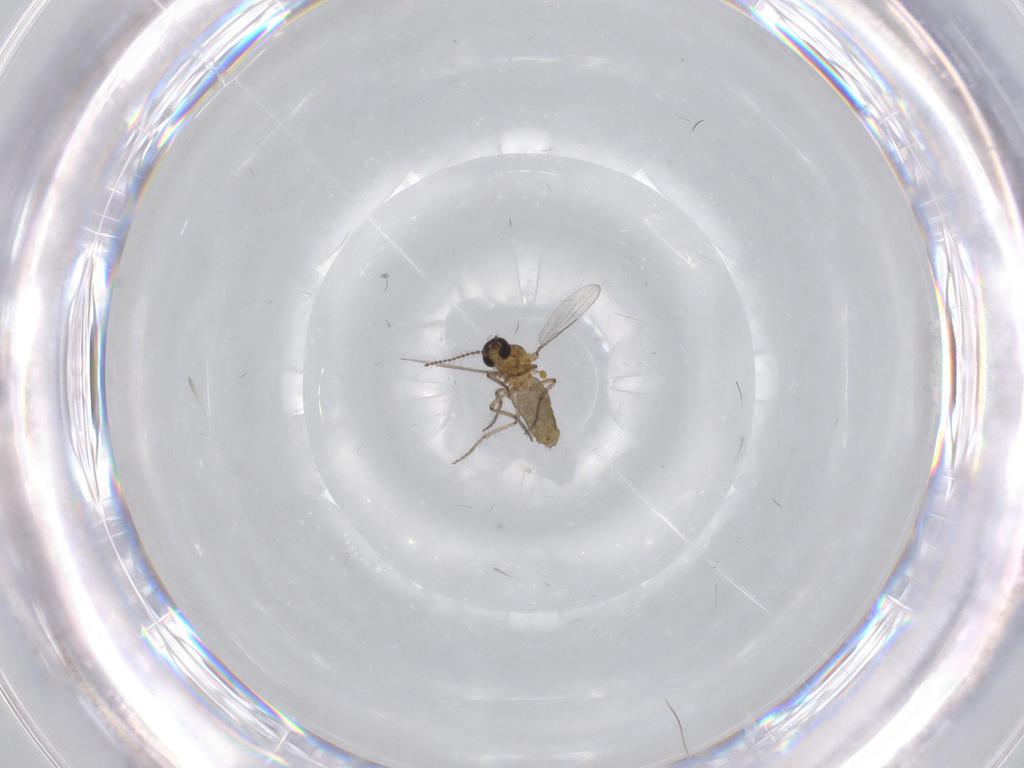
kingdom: Animalia
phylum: Arthropoda
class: Insecta
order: Diptera
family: Ceratopogonidae
